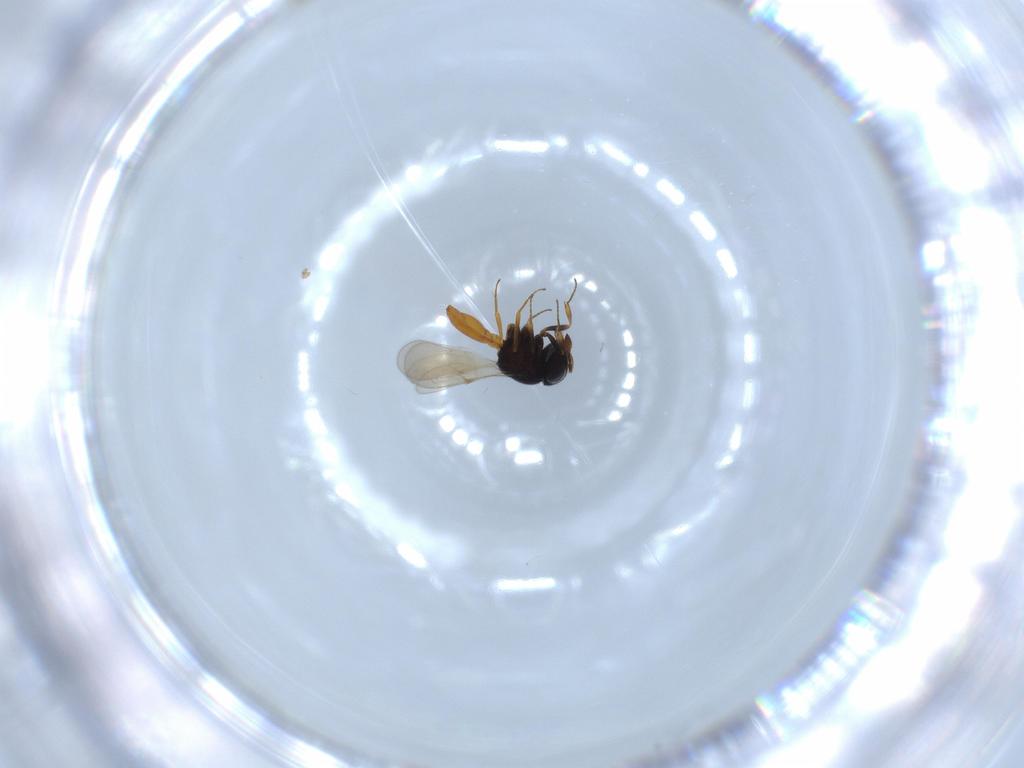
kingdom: Animalia
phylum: Arthropoda
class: Insecta
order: Hymenoptera
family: Scelionidae
